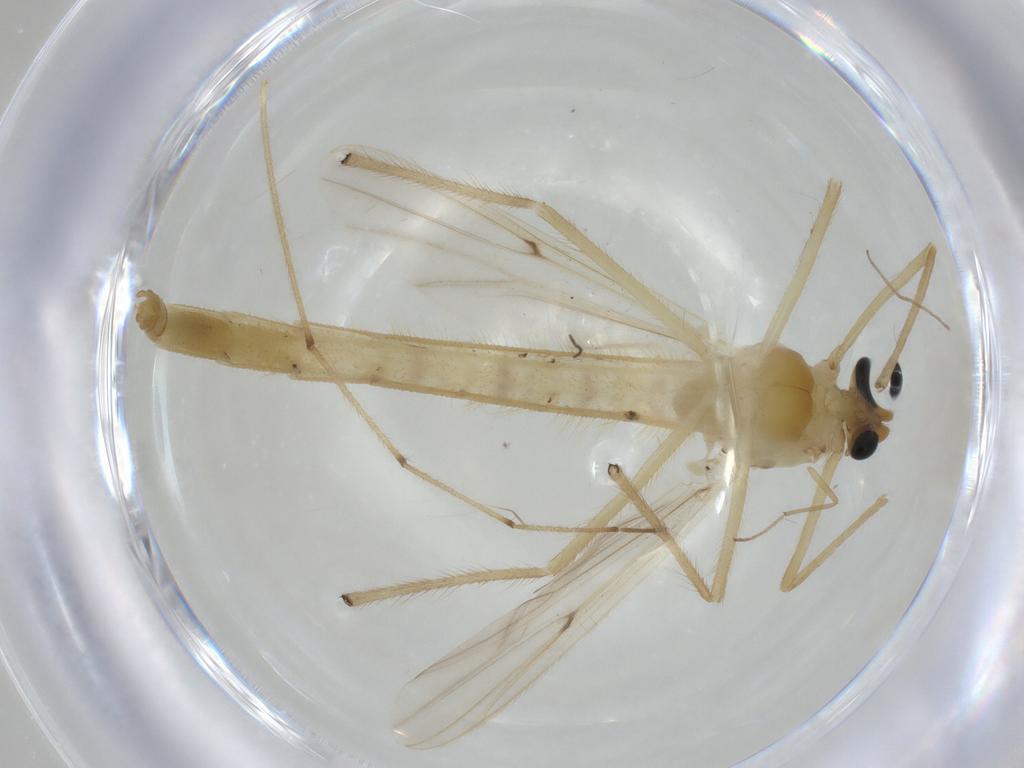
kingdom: Animalia
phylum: Arthropoda
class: Insecta
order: Diptera
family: Chironomidae
